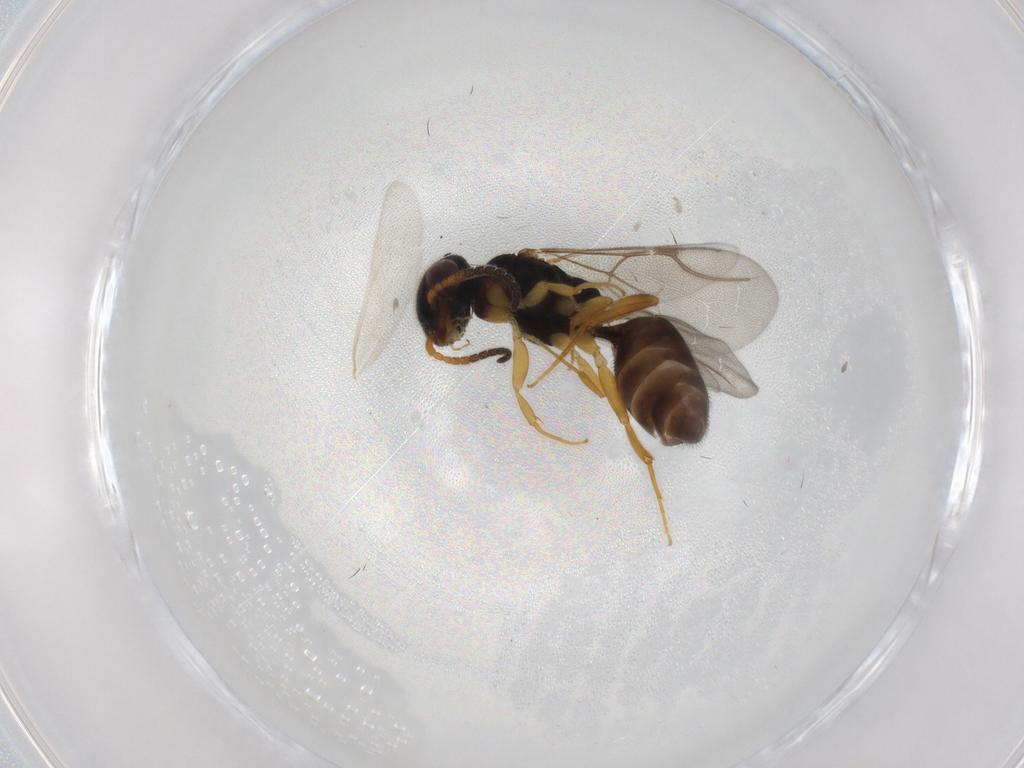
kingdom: Animalia
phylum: Arthropoda
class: Insecta
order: Hymenoptera
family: Bethylidae
